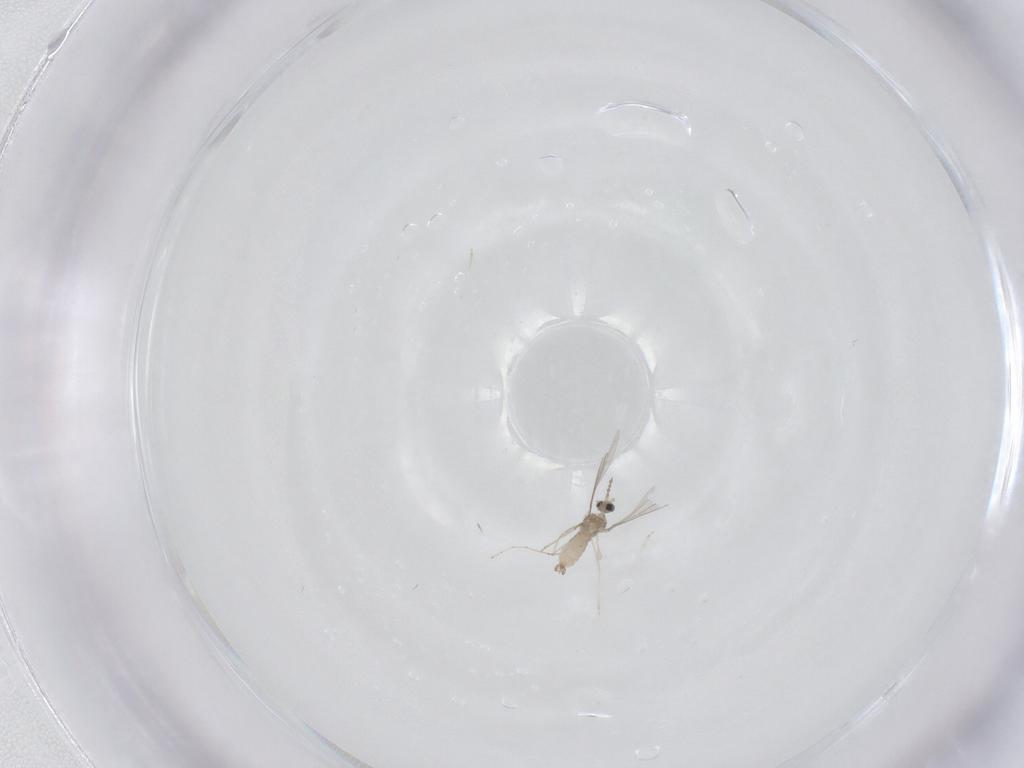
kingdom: Animalia
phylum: Arthropoda
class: Insecta
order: Diptera
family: Cecidomyiidae
